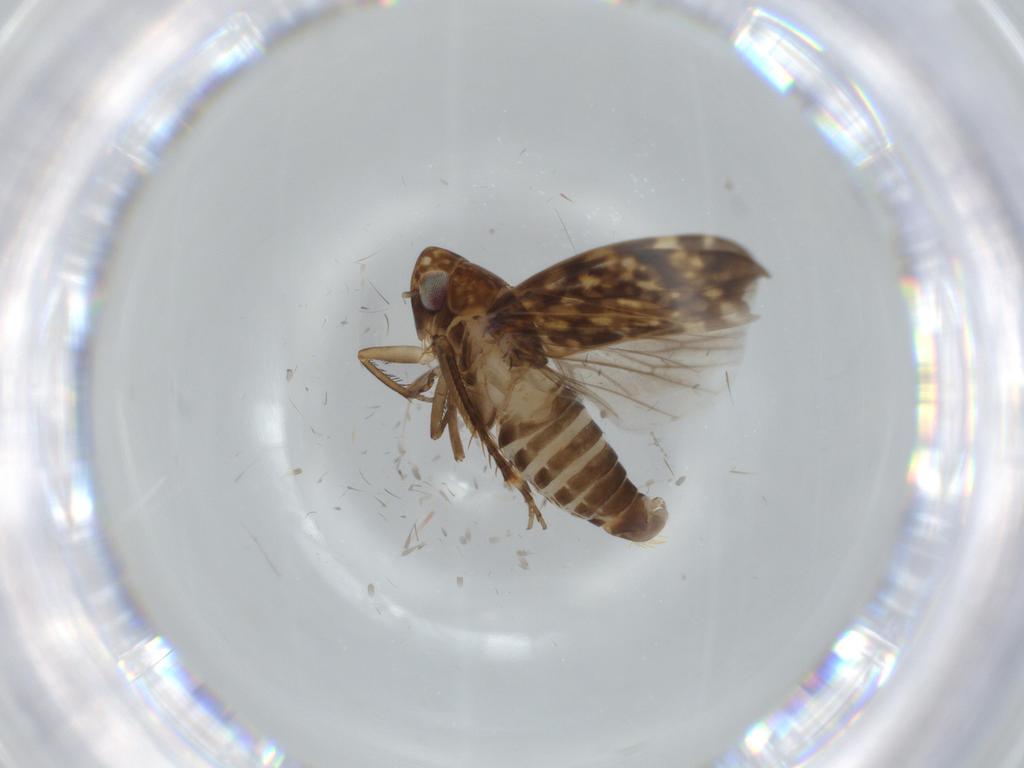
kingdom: Animalia
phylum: Arthropoda
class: Insecta
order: Hemiptera
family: Cicadellidae
